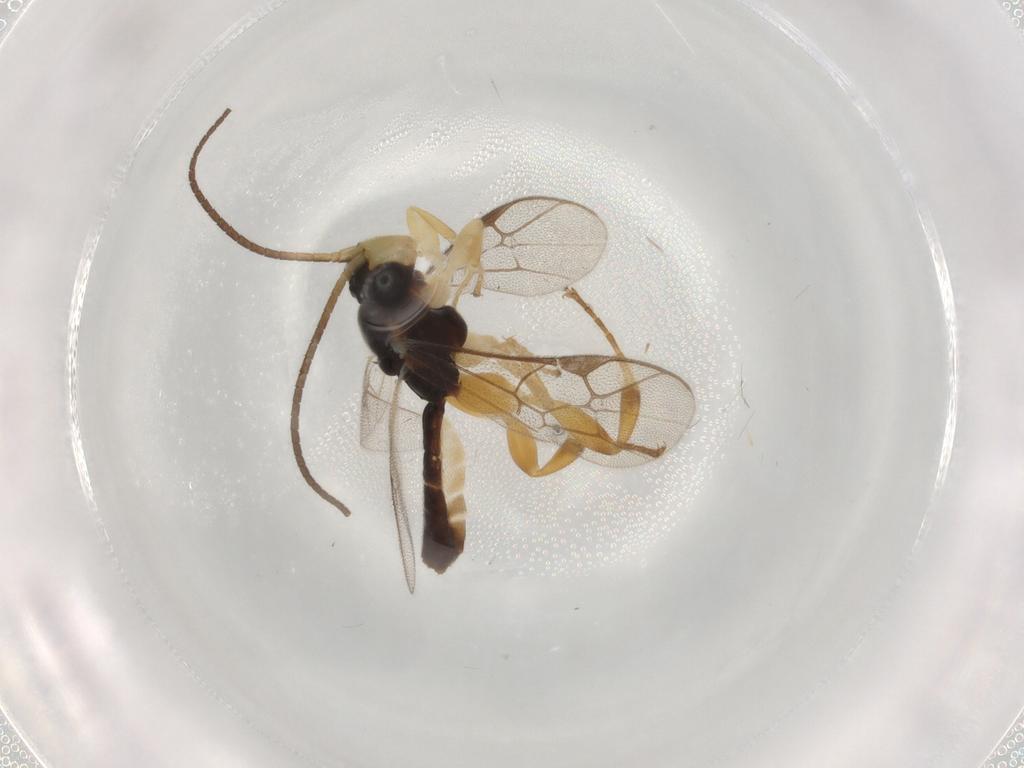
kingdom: Animalia
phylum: Arthropoda
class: Insecta
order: Hymenoptera
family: Ichneumonidae
